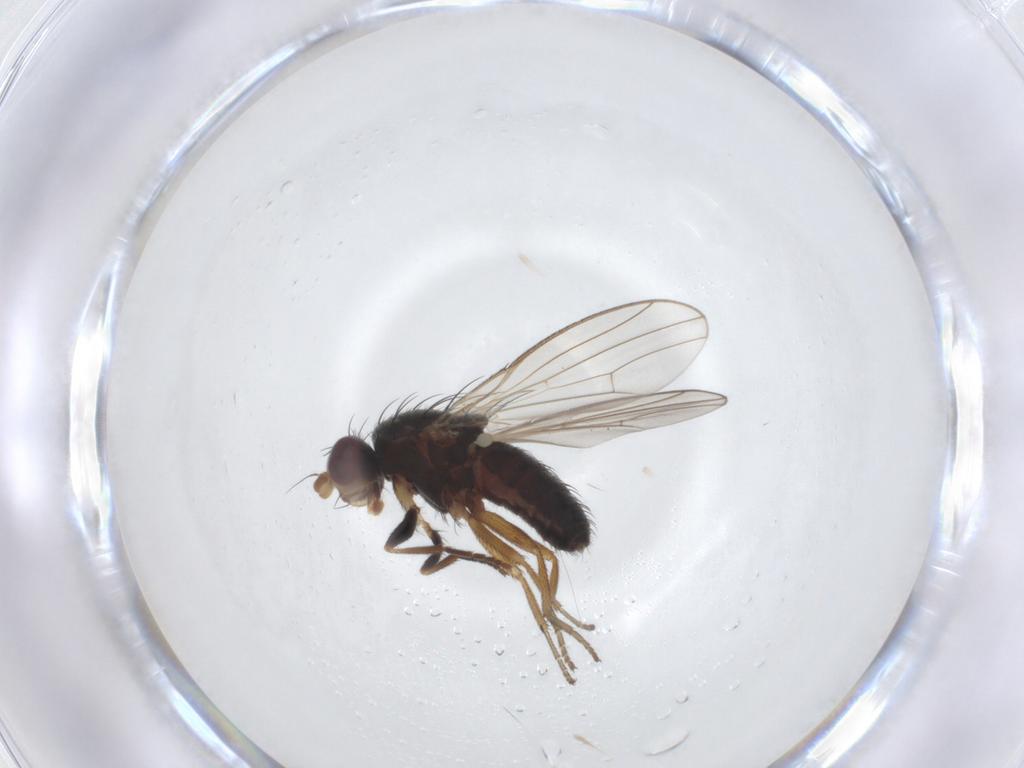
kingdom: Animalia
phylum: Arthropoda
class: Insecta
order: Diptera
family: Heleomyzidae
